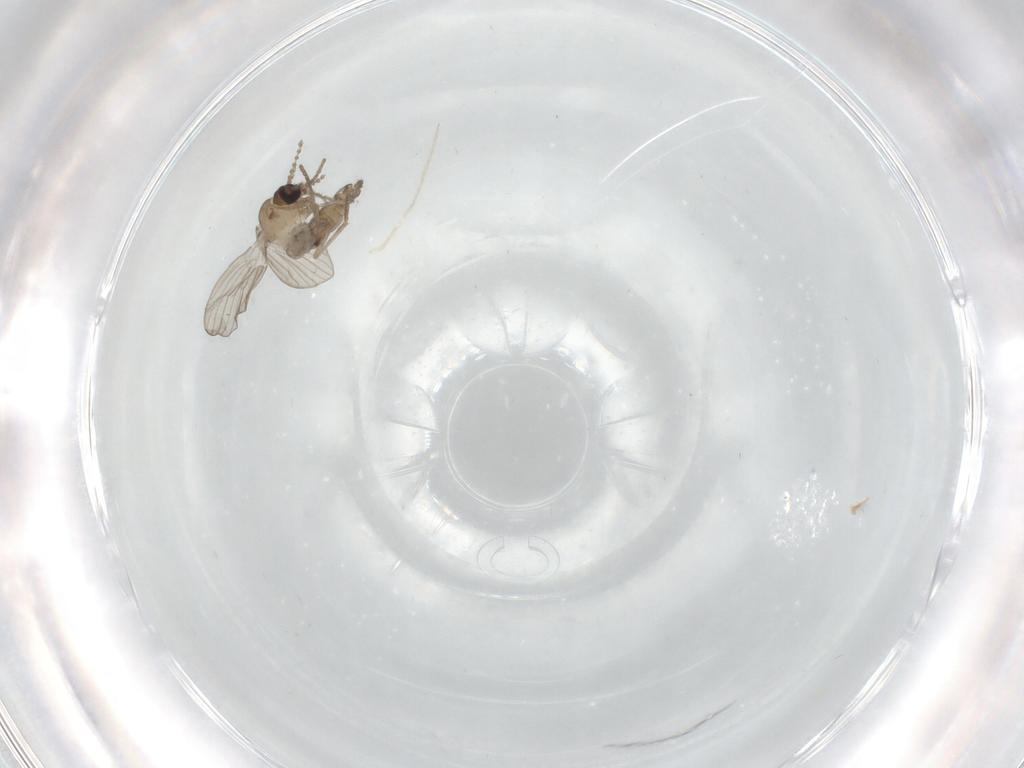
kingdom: Animalia
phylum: Arthropoda
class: Insecta
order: Diptera
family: Psychodidae
